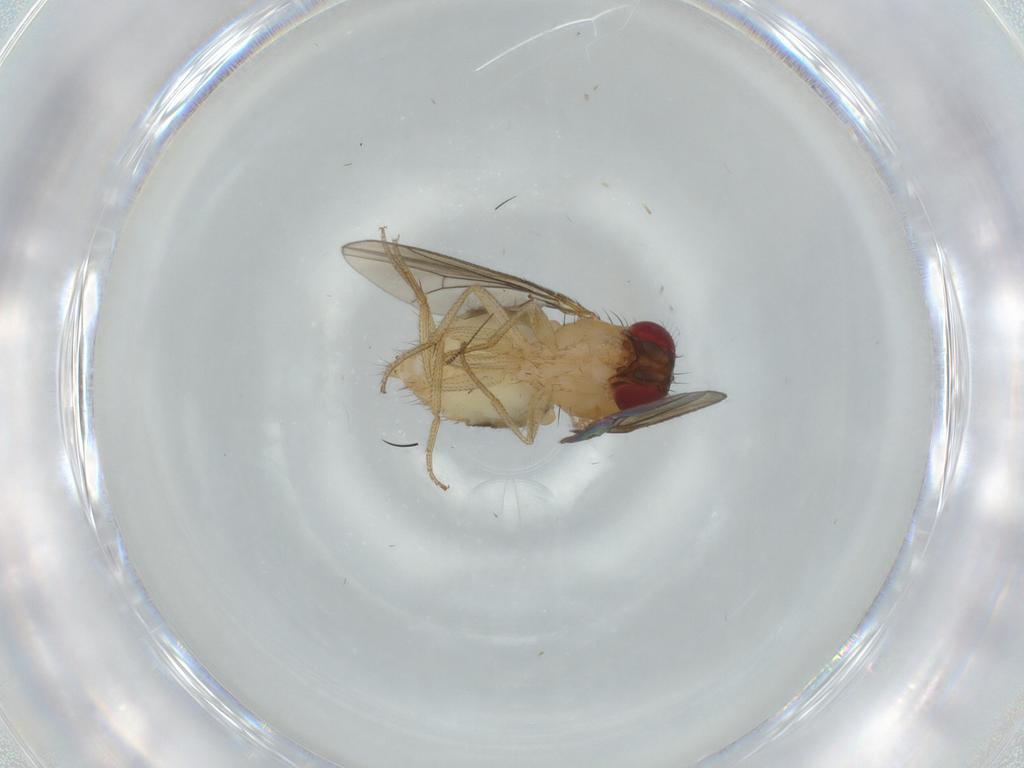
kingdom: Animalia
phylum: Arthropoda
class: Insecta
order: Diptera
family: Drosophilidae
